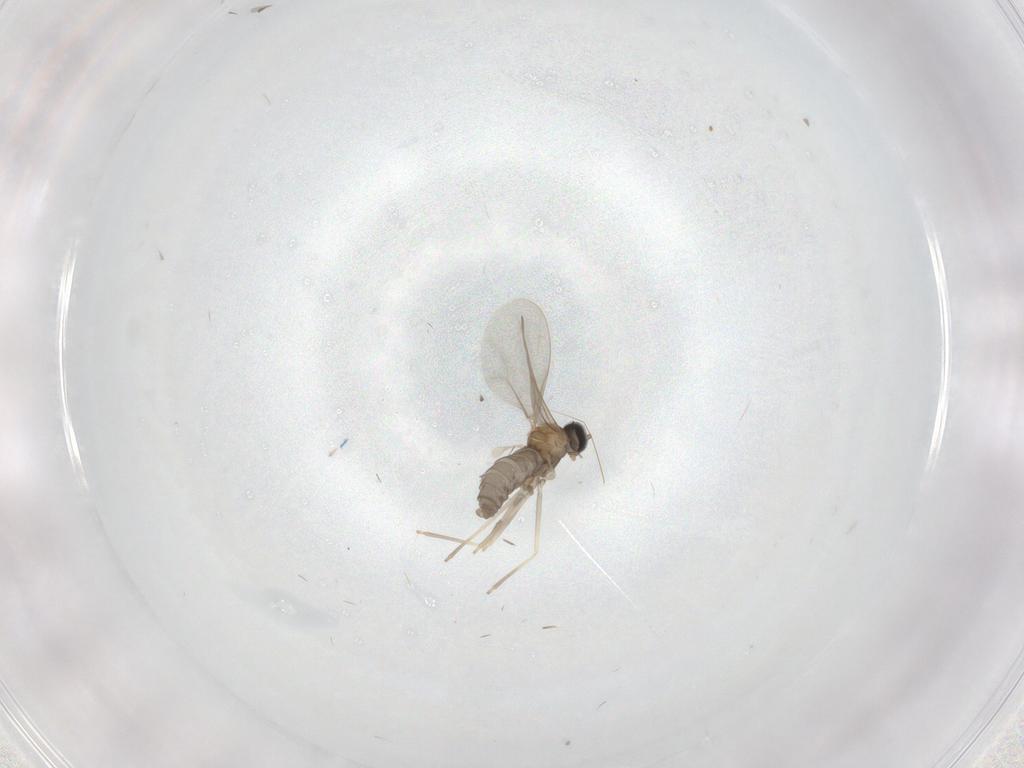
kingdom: Animalia
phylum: Arthropoda
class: Insecta
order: Diptera
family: Cecidomyiidae
